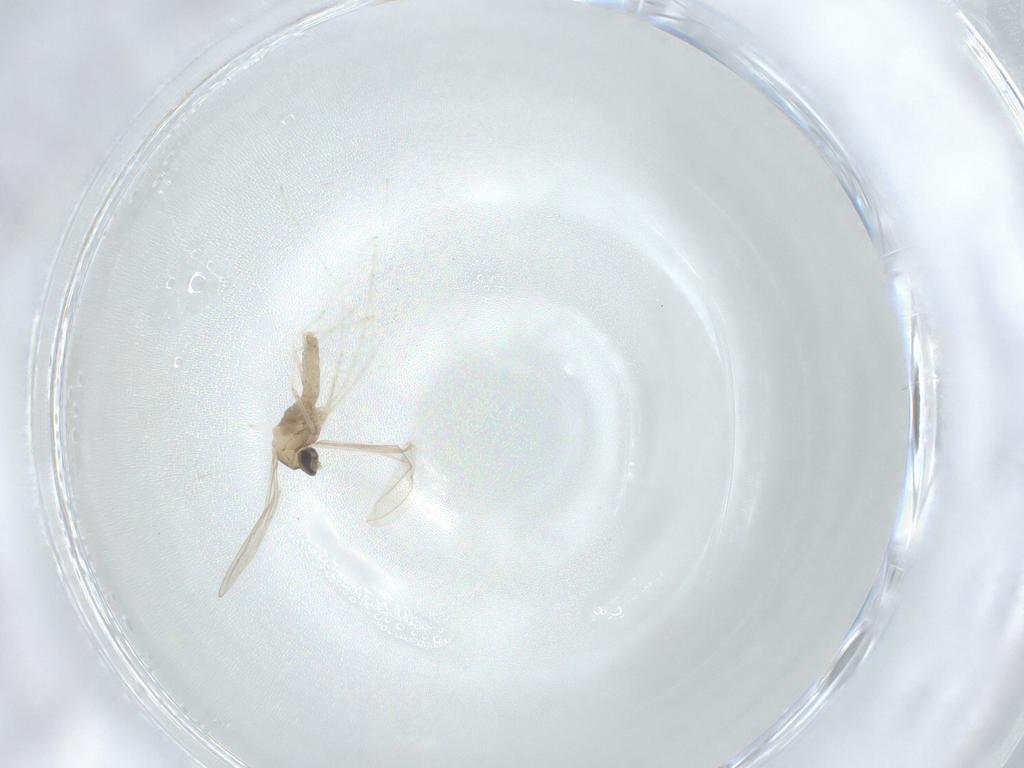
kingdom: Animalia
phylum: Arthropoda
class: Insecta
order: Diptera
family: Cecidomyiidae
